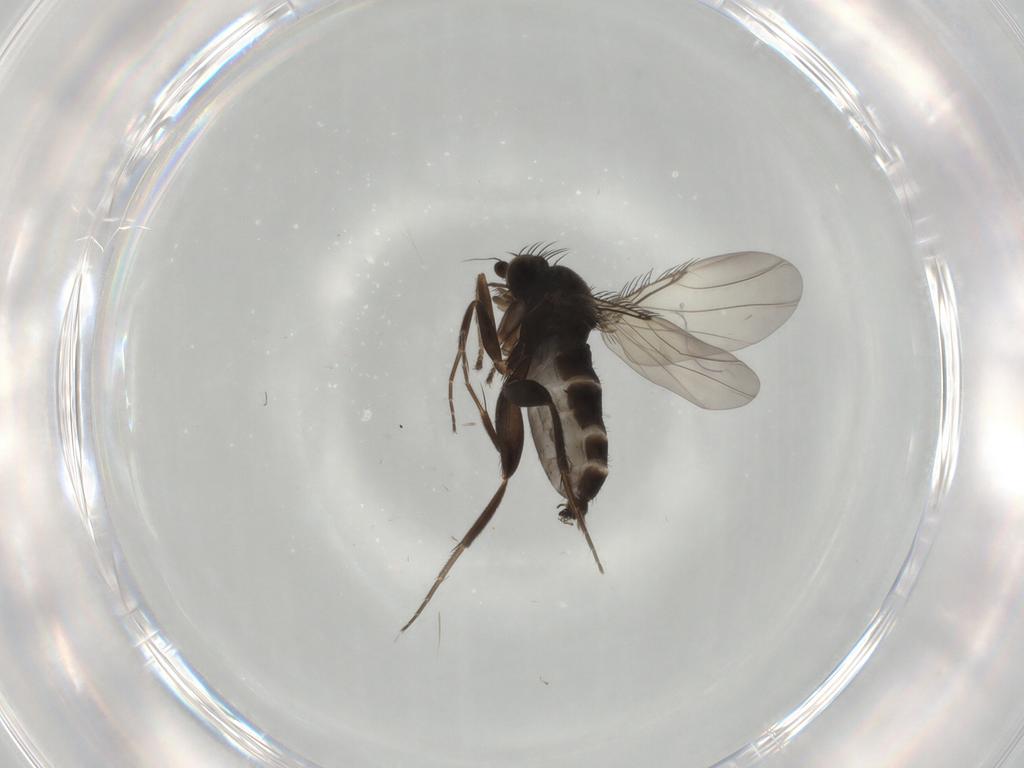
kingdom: Animalia
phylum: Arthropoda
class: Insecta
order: Diptera
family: Phoridae
